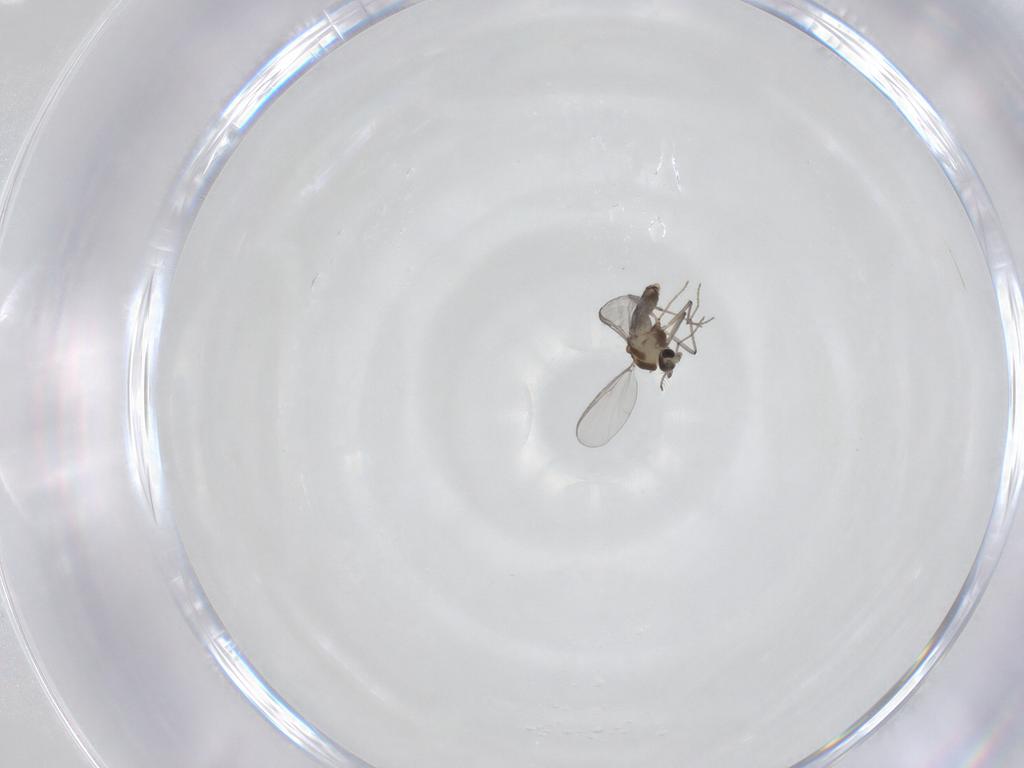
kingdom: Animalia
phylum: Arthropoda
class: Insecta
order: Diptera
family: Chironomidae
